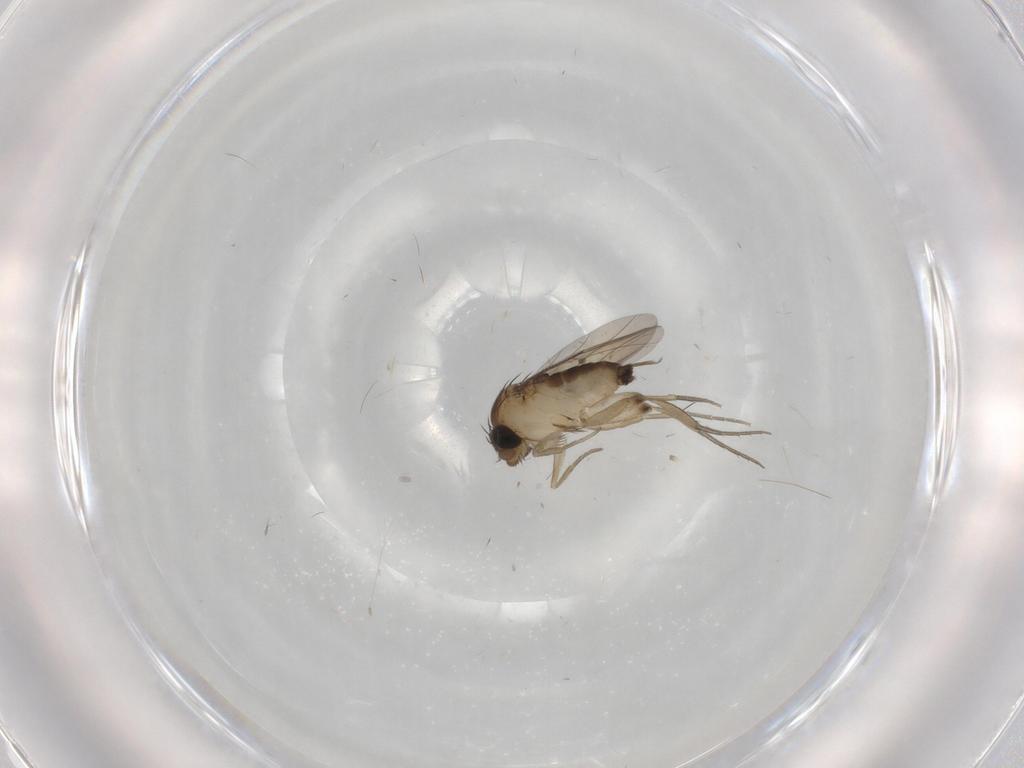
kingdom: Animalia
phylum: Arthropoda
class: Insecta
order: Diptera
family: Phoridae
